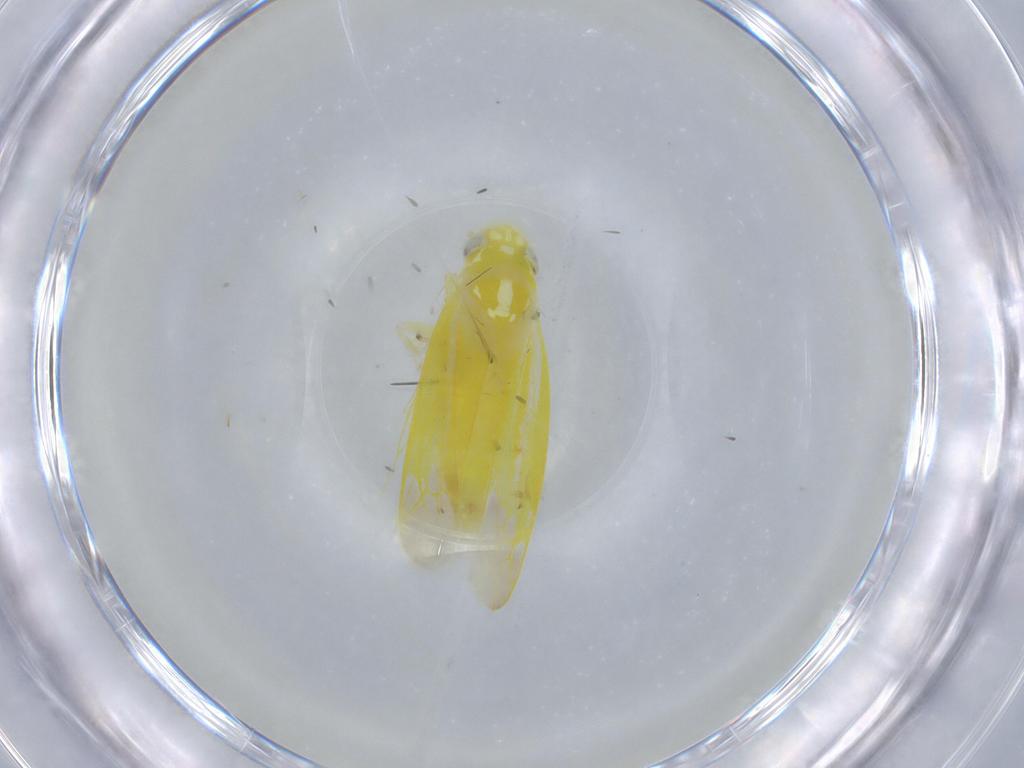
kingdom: Animalia
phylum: Arthropoda
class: Insecta
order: Hemiptera
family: Cicadellidae
